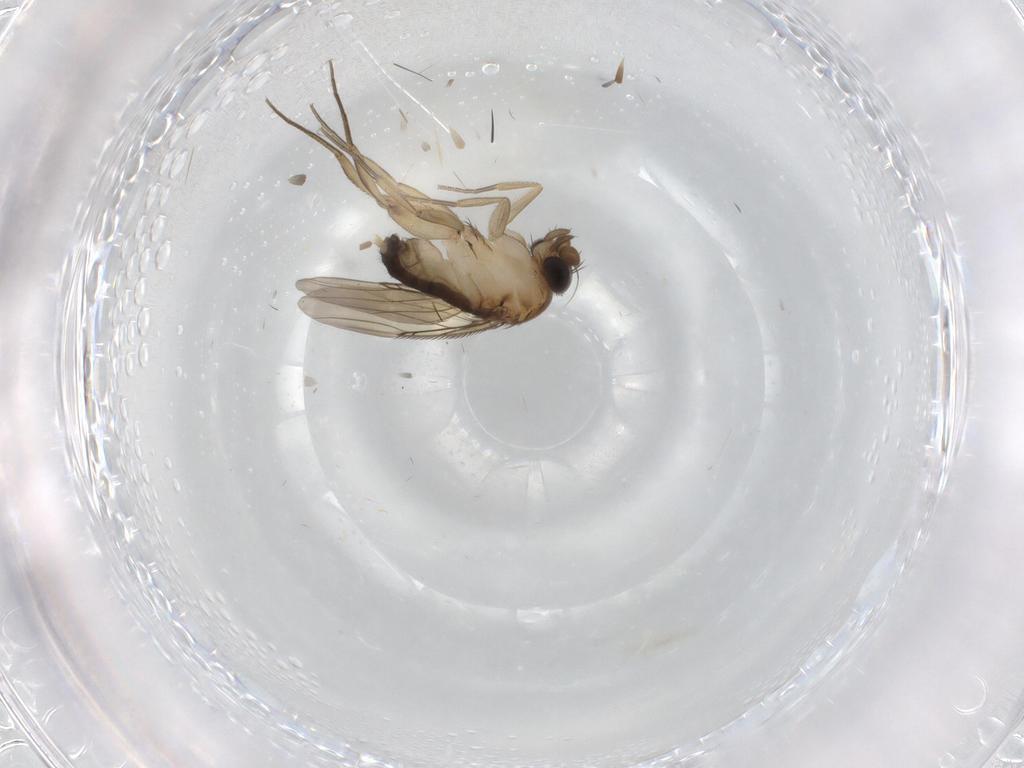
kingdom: Animalia
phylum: Arthropoda
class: Insecta
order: Diptera
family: Phoridae
